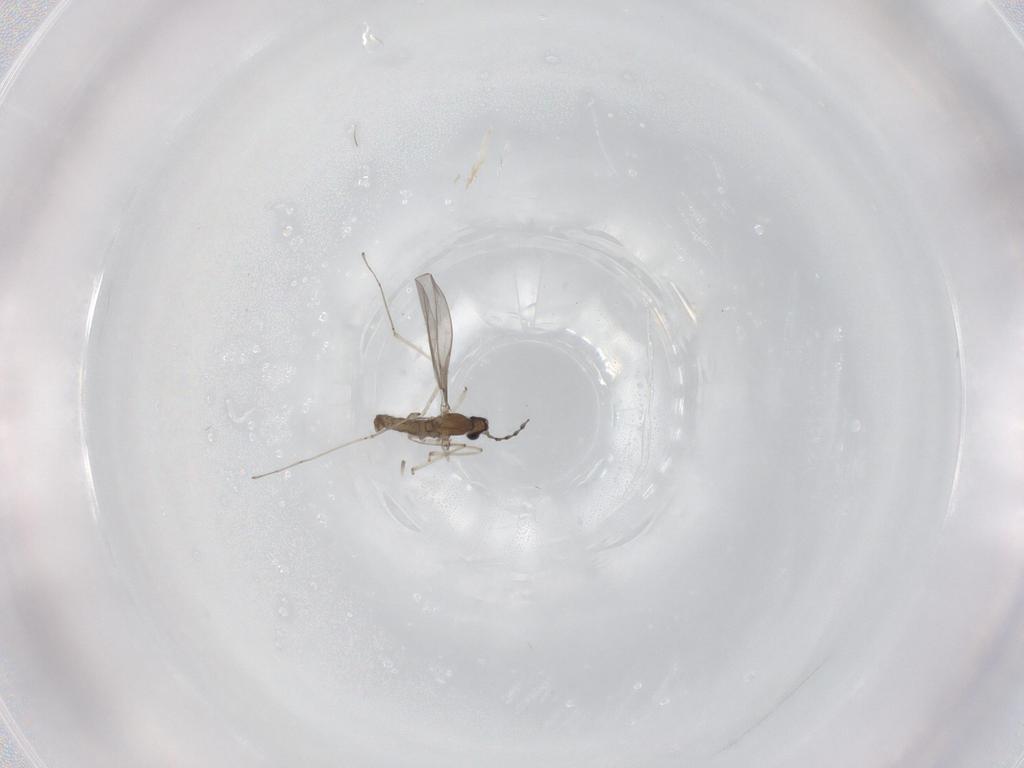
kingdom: Animalia
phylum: Arthropoda
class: Insecta
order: Diptera
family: Cecidomyiidae
